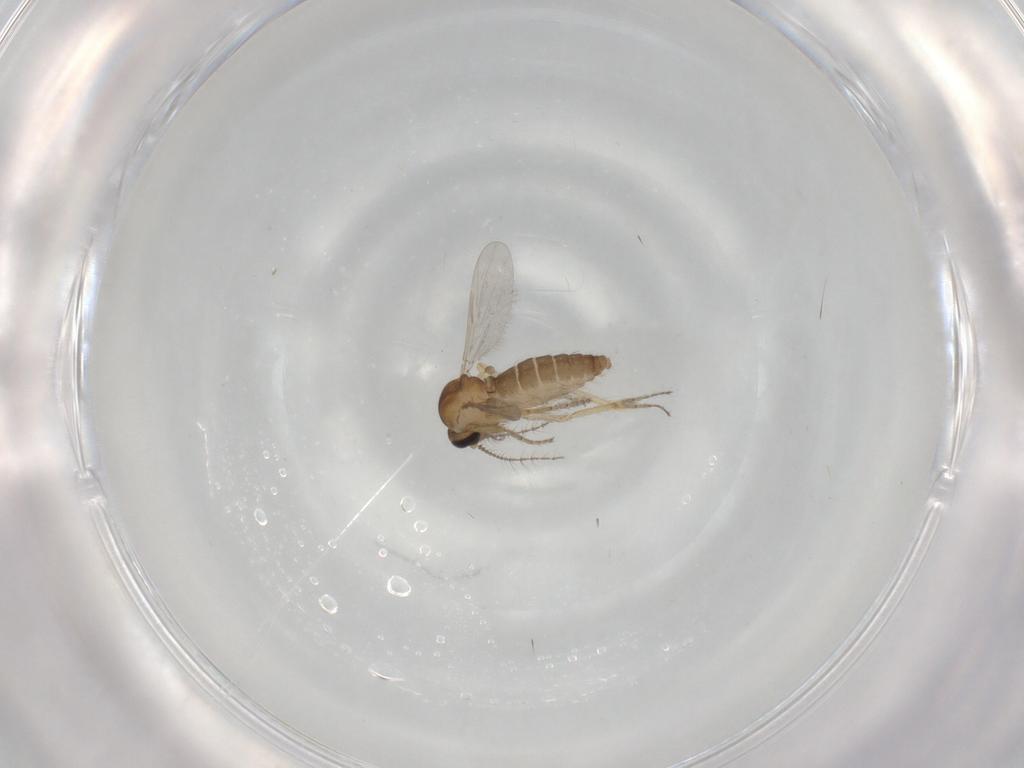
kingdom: Animalia
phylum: Arthropoda
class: Insecta
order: Diptera
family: Ceratopogonidae
